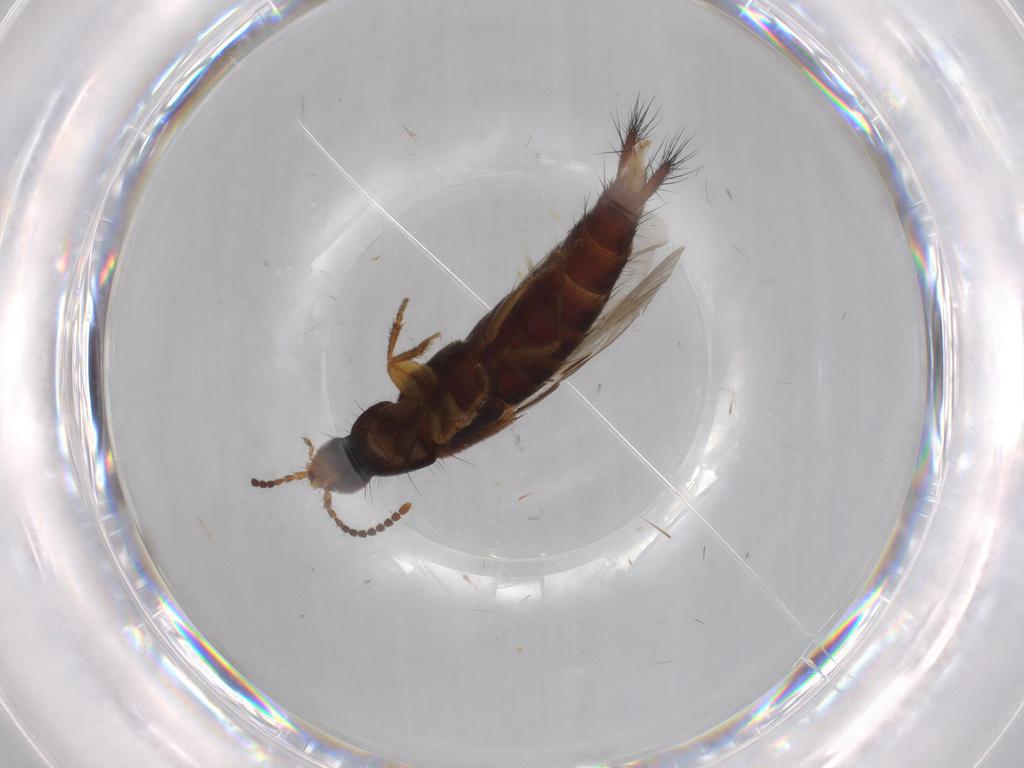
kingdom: Animalia
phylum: Arthropoda
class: Insecta
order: Coleoptera
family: Staphylinidae
